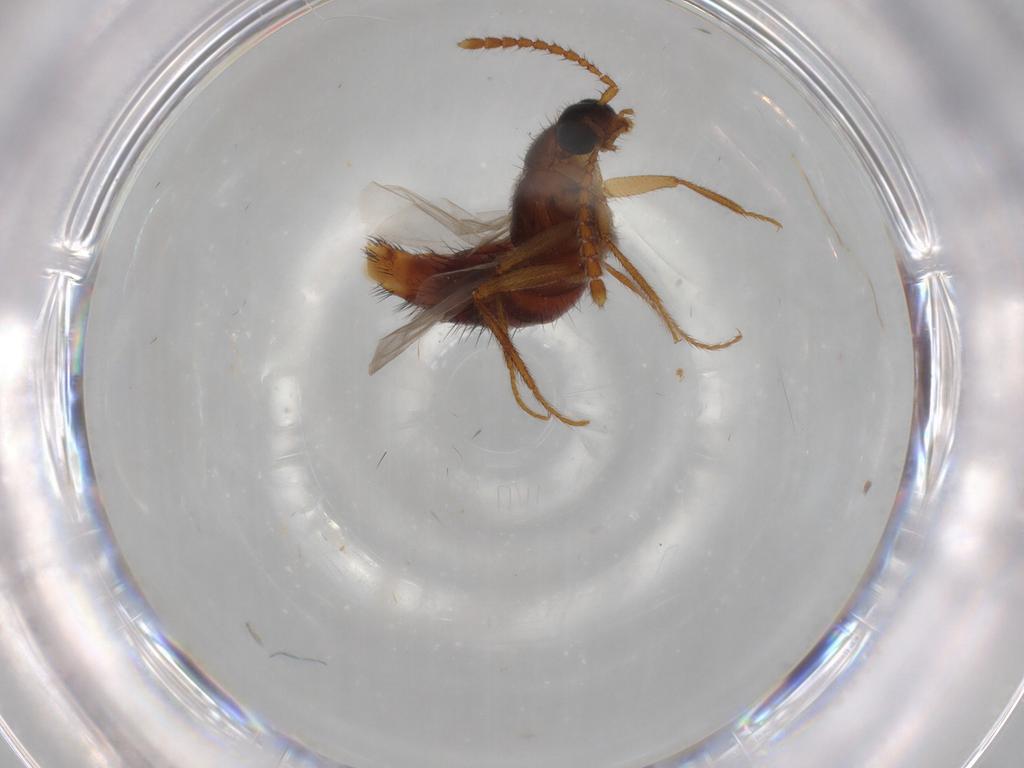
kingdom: Animalia
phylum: Arthropoda
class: Insecta
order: Coleoptera
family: Staphylinidae
